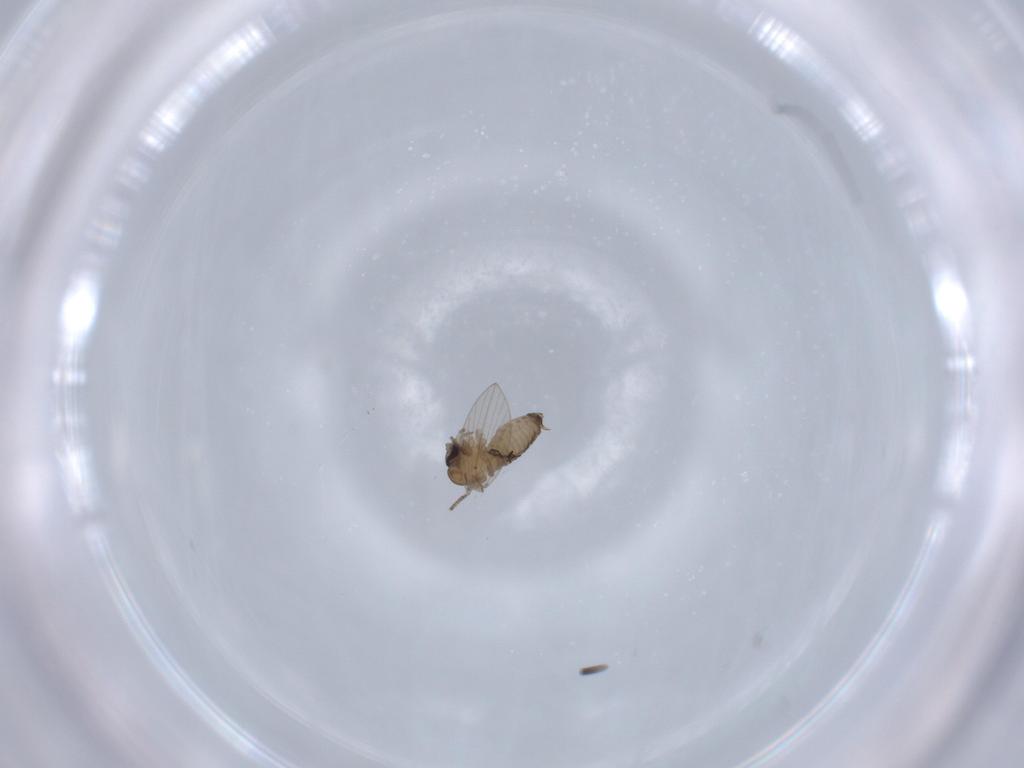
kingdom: Animalia
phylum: Arthropoda
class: Insecta
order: Diptera
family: Psychodidae
